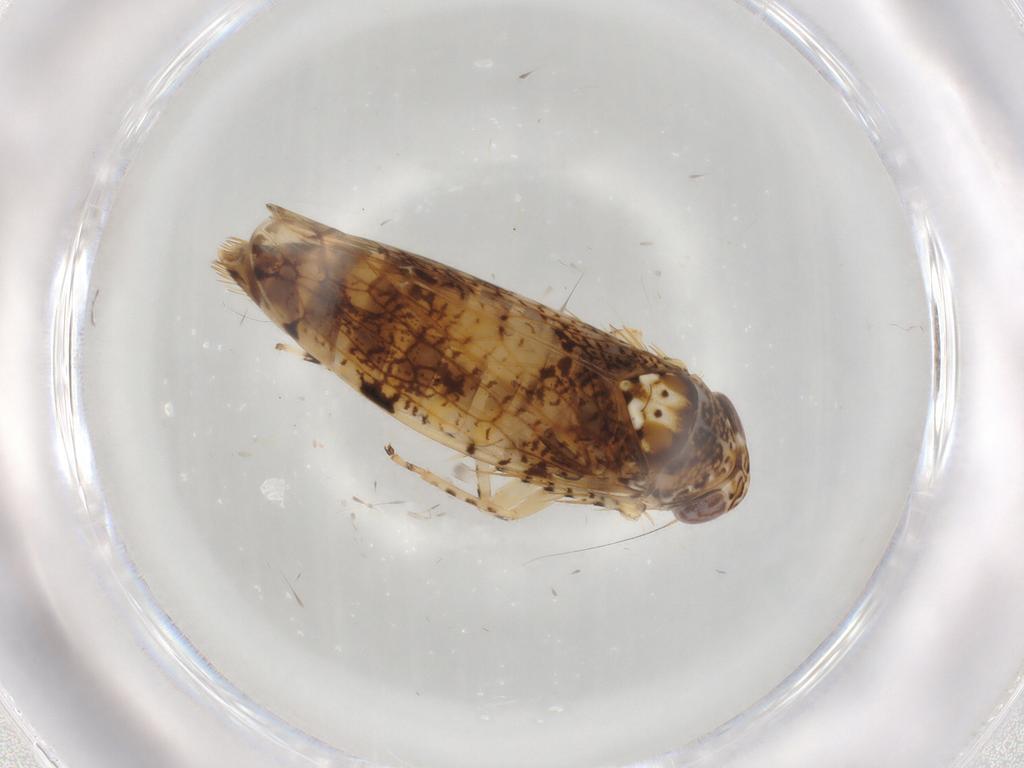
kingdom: Animalia
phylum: Arthropoda
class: Insecta
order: Hemiptera
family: Cicadellidae
